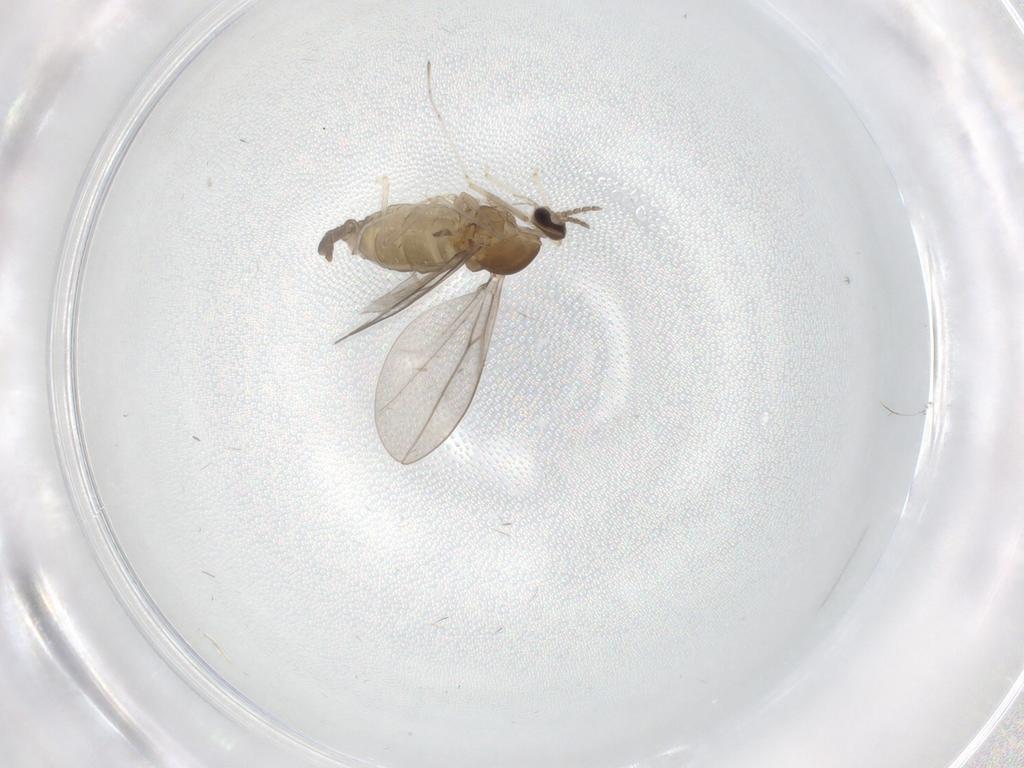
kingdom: Animalia
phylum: Arthropoda
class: Insecta
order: Diptera
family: Cecidomyiidae
